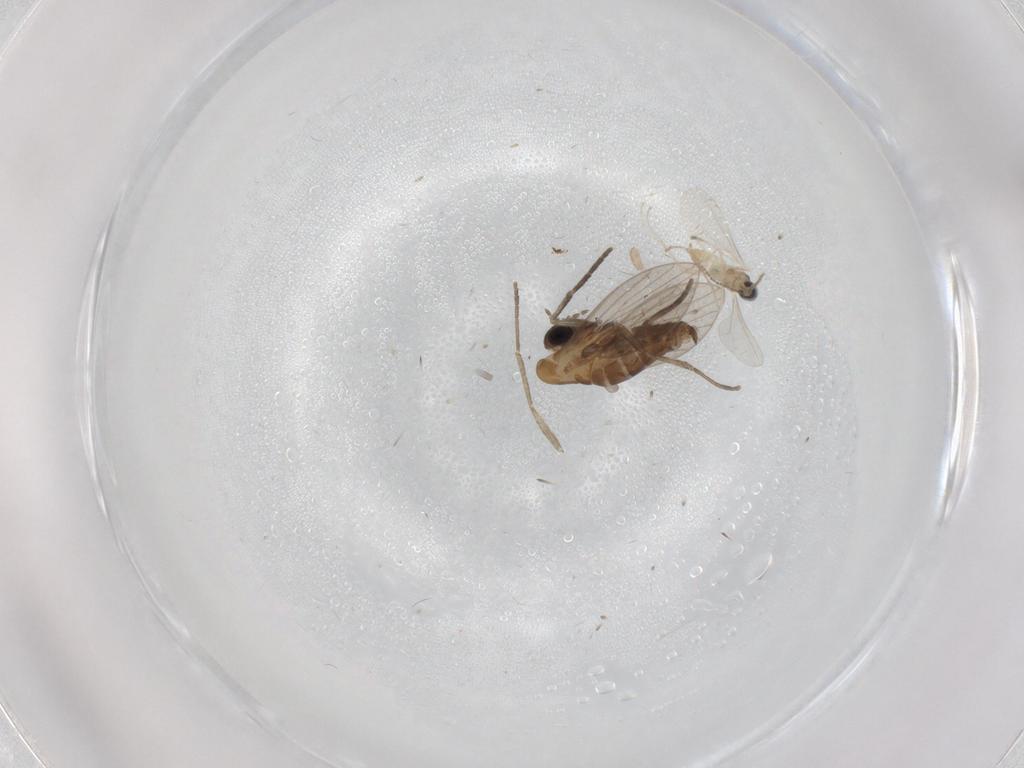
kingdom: Animalia
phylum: Arthropoda
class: Insecta
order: Diptera
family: Cecidomyiidae
